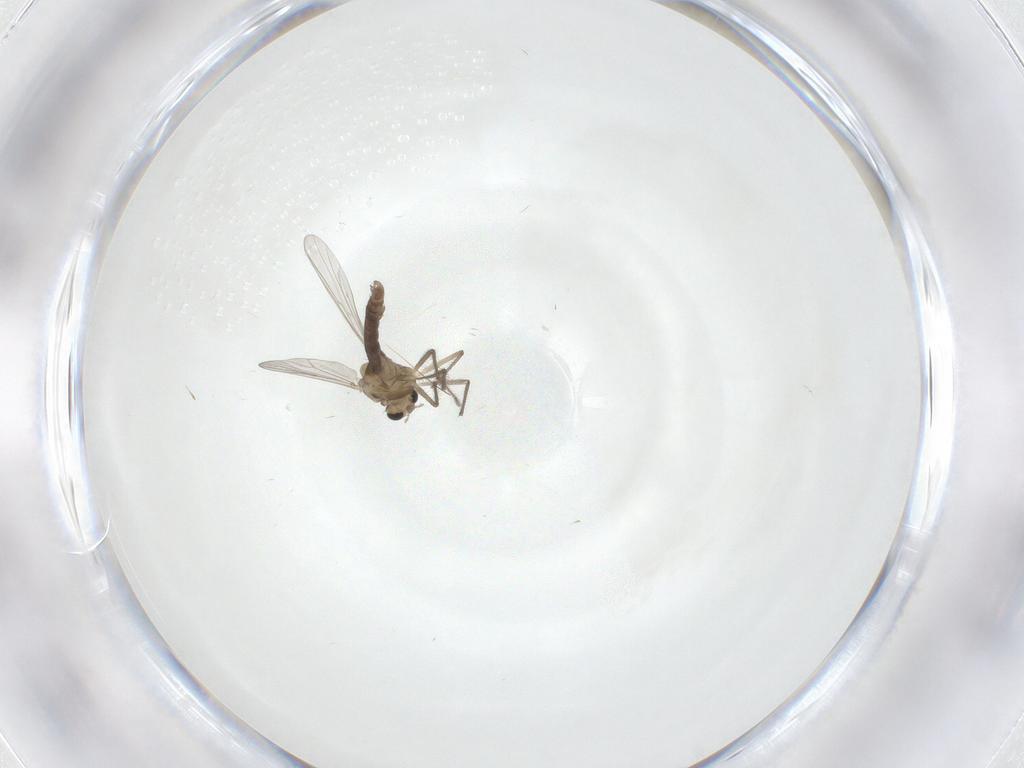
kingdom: Animalia
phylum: Arthropoda
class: Insecta
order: Diptera
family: Chironomidae
